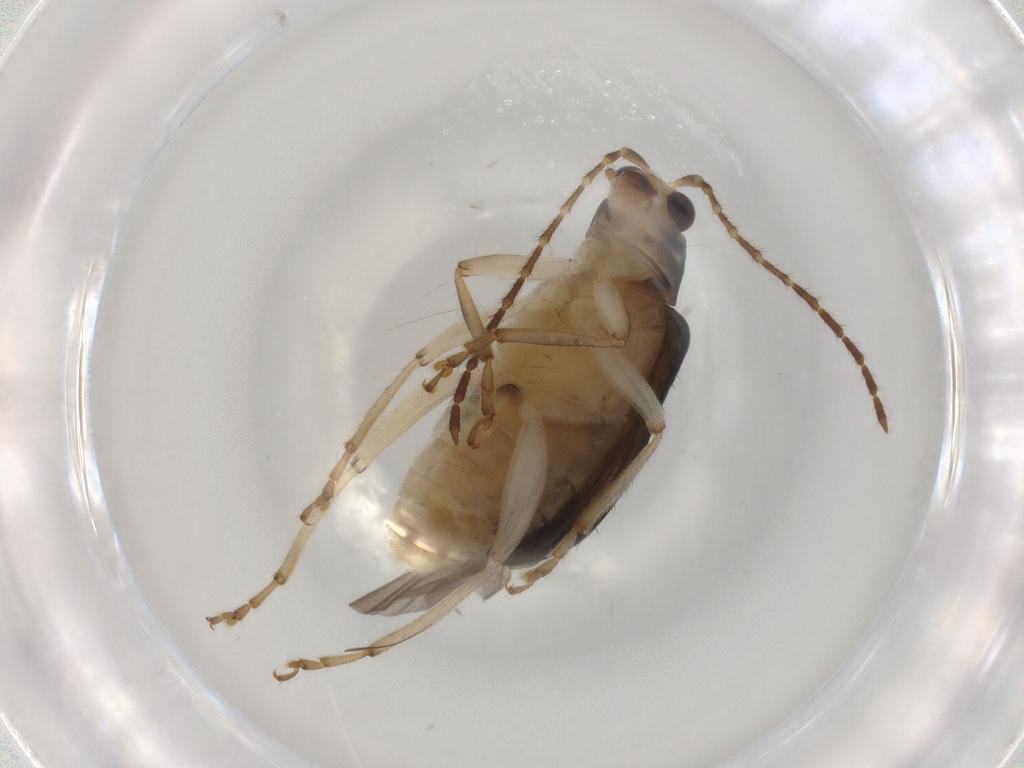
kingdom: Animalia
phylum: Arthropoda
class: Insecta
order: Coleoptera
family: Chrysomelidae
